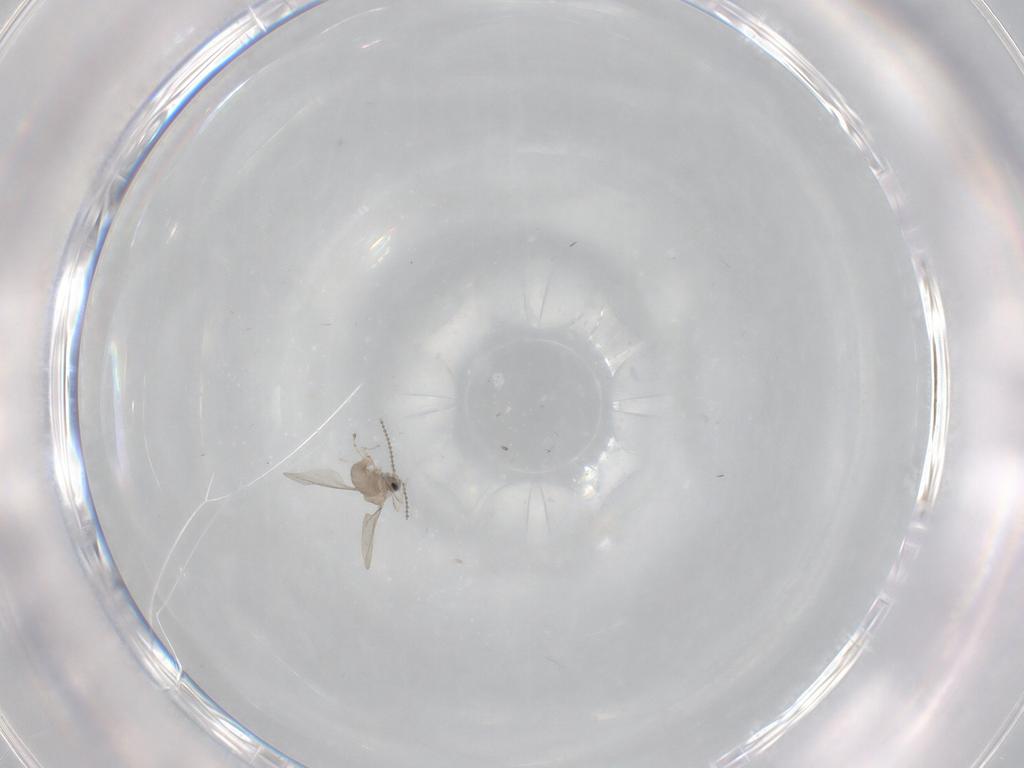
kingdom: Animalia
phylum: Arthropoda
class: Insecta
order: Diptera
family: Cecidomyiidae
